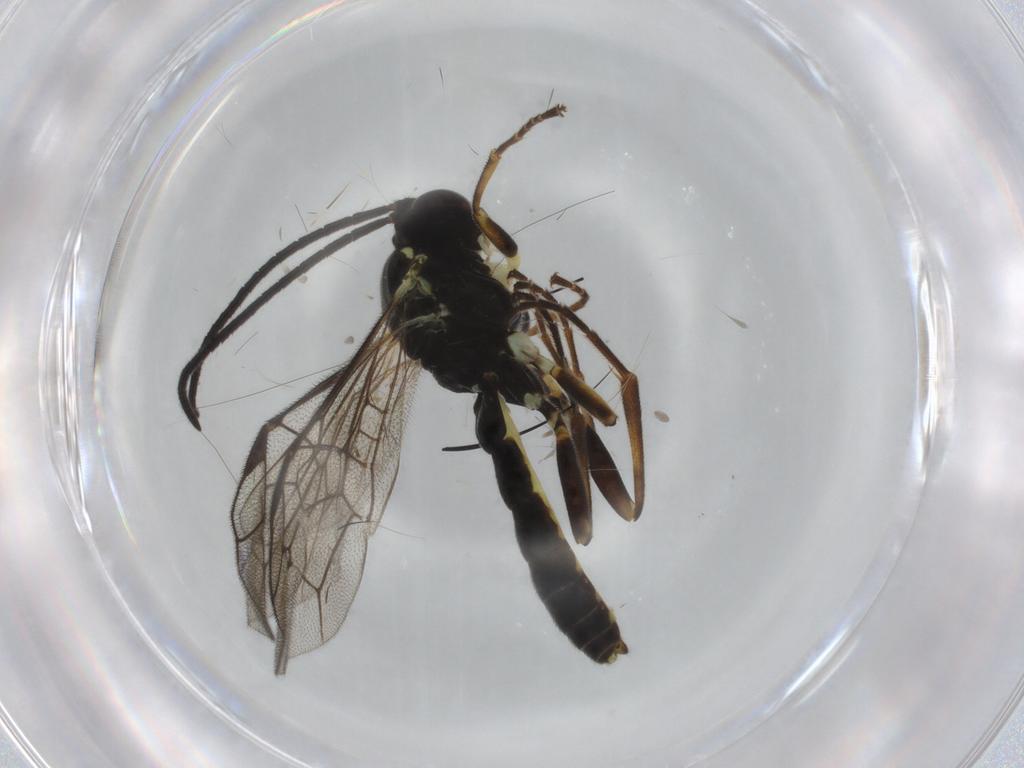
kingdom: Animalia
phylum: Arthropoda
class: Insecta
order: Hymenoptera
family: Ichneumonidae
